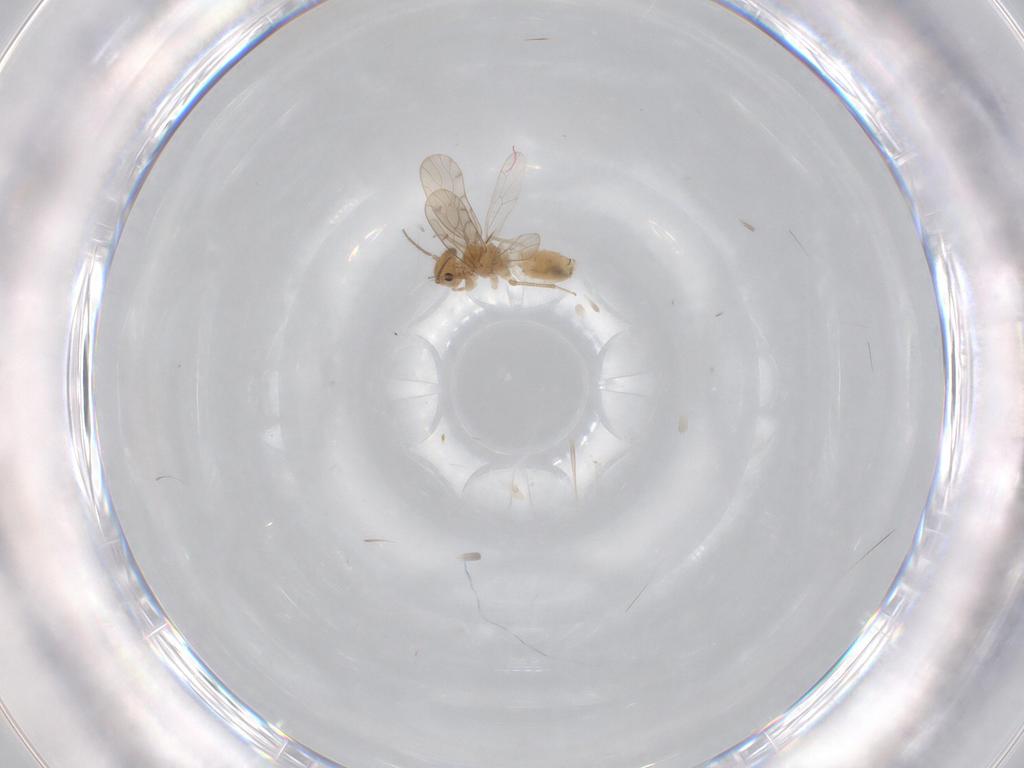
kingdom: Animalia
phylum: Arthropoda
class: Insecta
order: Psocodea
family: Ectopsocidae
